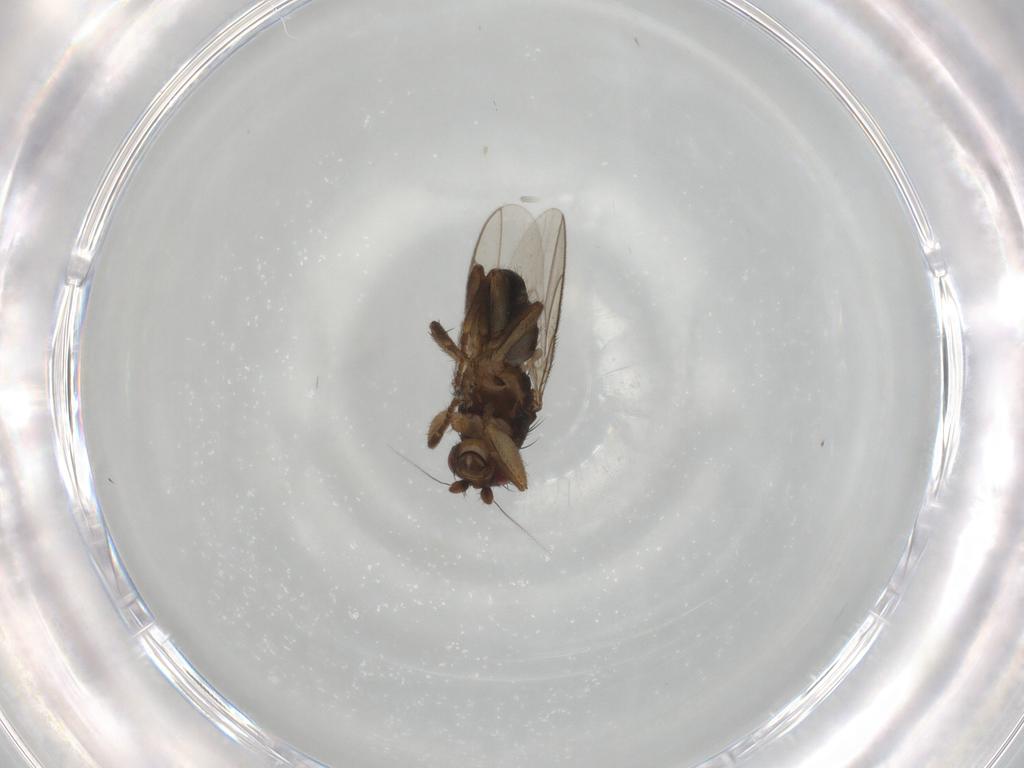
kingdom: Animalia
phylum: Arthropoda
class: Insecta
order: Diptera
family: Sphaeroceridae
